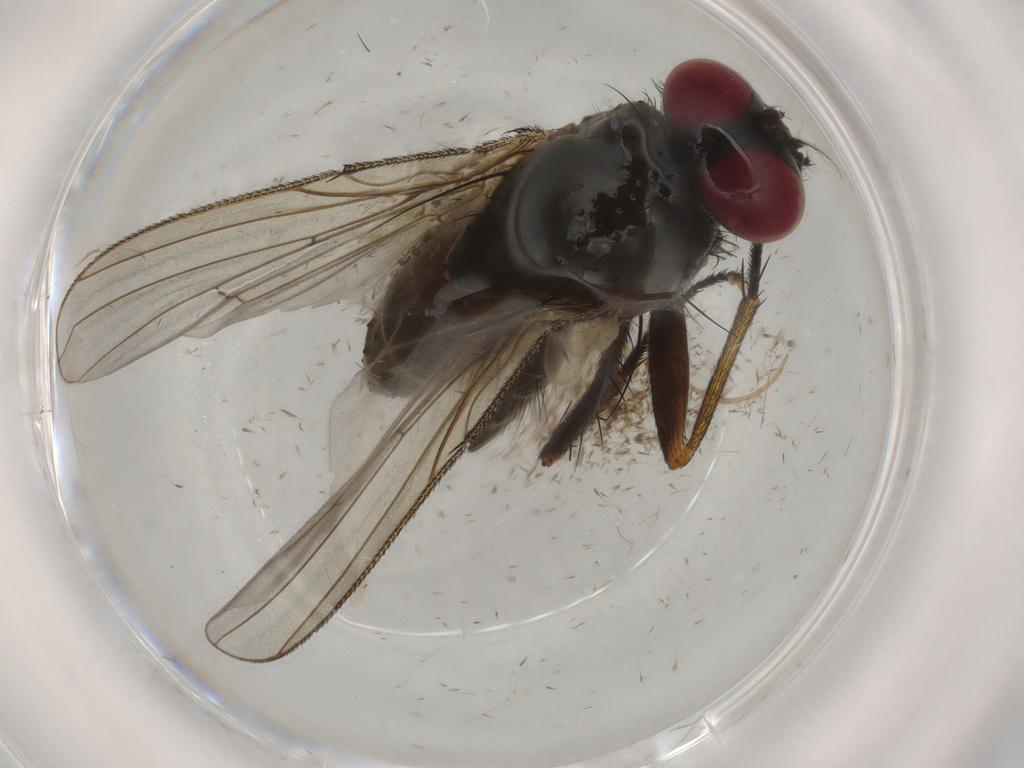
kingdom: Animalia
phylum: Arthropoda
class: Insecta
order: Diptera
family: Muscidae
